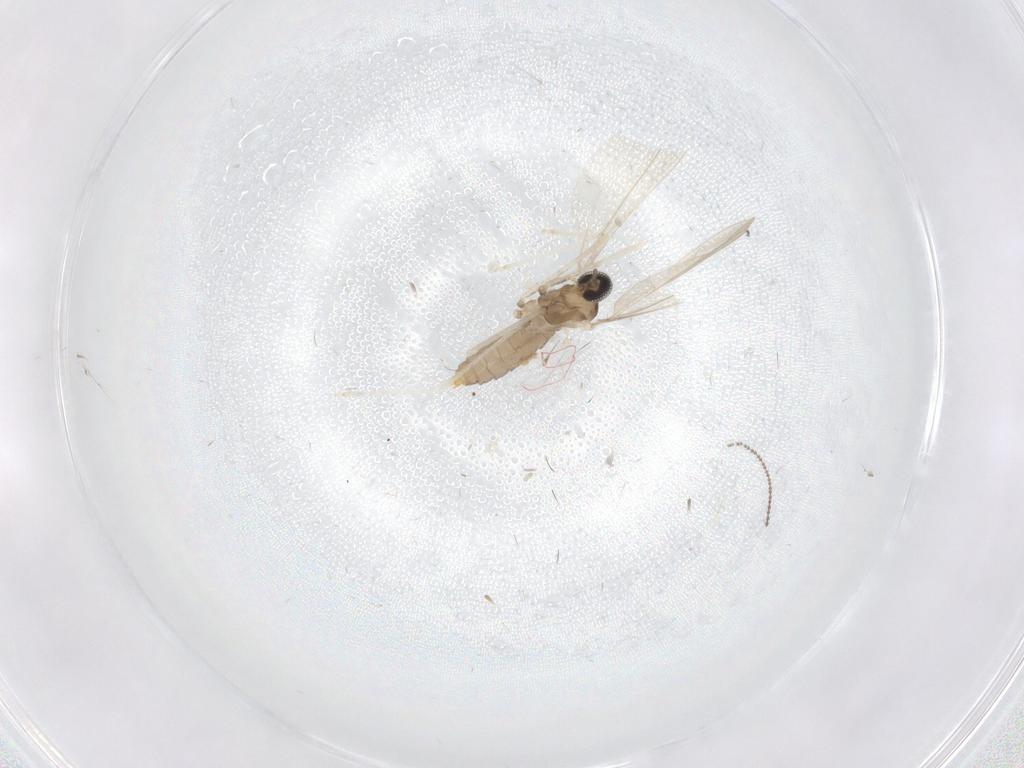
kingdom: Animalia
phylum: Arthropoda
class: Insecta
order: Diptera
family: Cecidomyiidae
